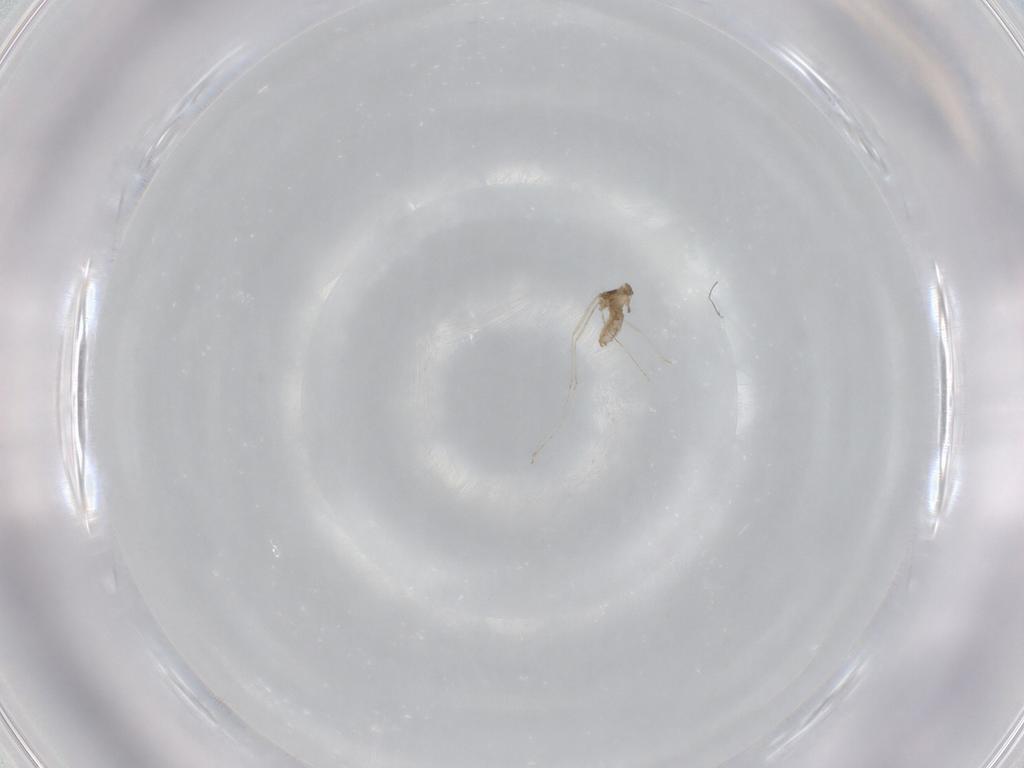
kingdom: Animalia
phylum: Arthropoda
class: Insecta
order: Diptera
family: Cecidomyiidae
